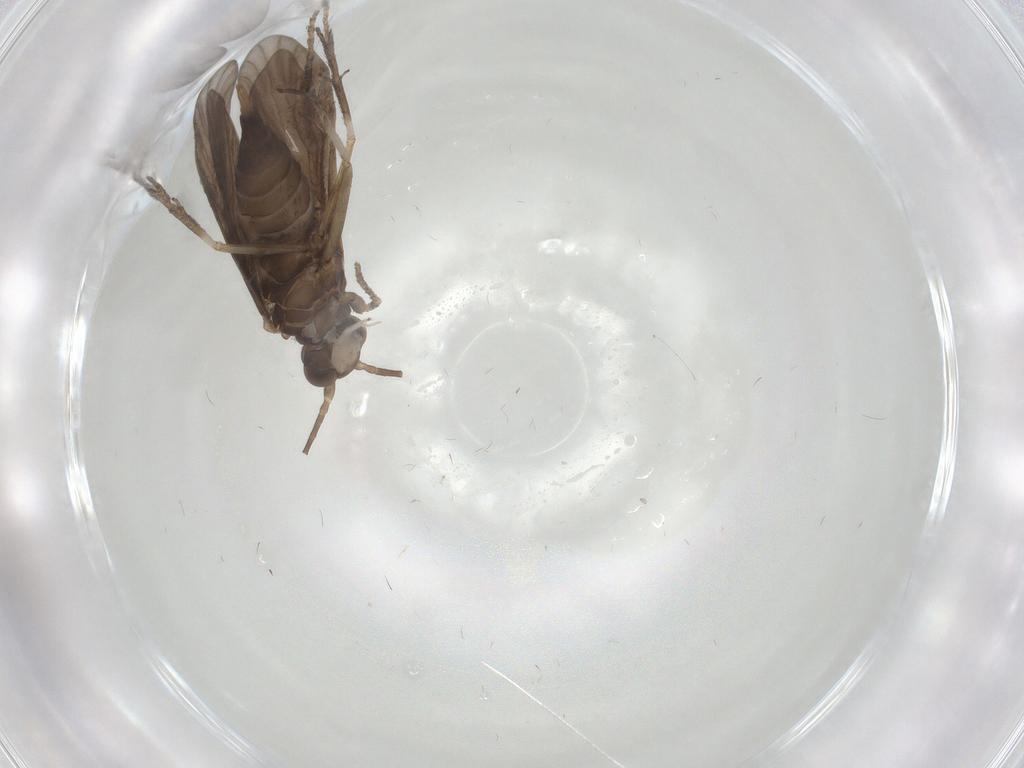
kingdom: Animalia
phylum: Arthropoda
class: Insecta
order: Trichoptera
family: Xiphocentronidae
